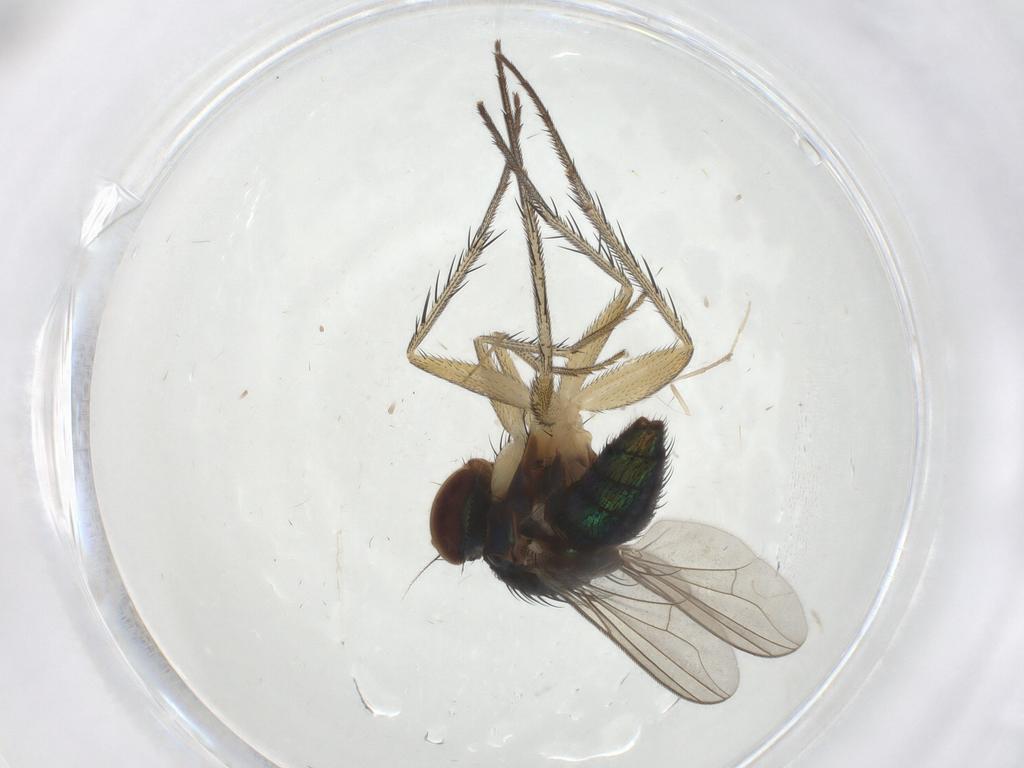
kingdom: Animalia
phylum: Arthropoda
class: Insecta
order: Diptera
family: Dolichopodidae
